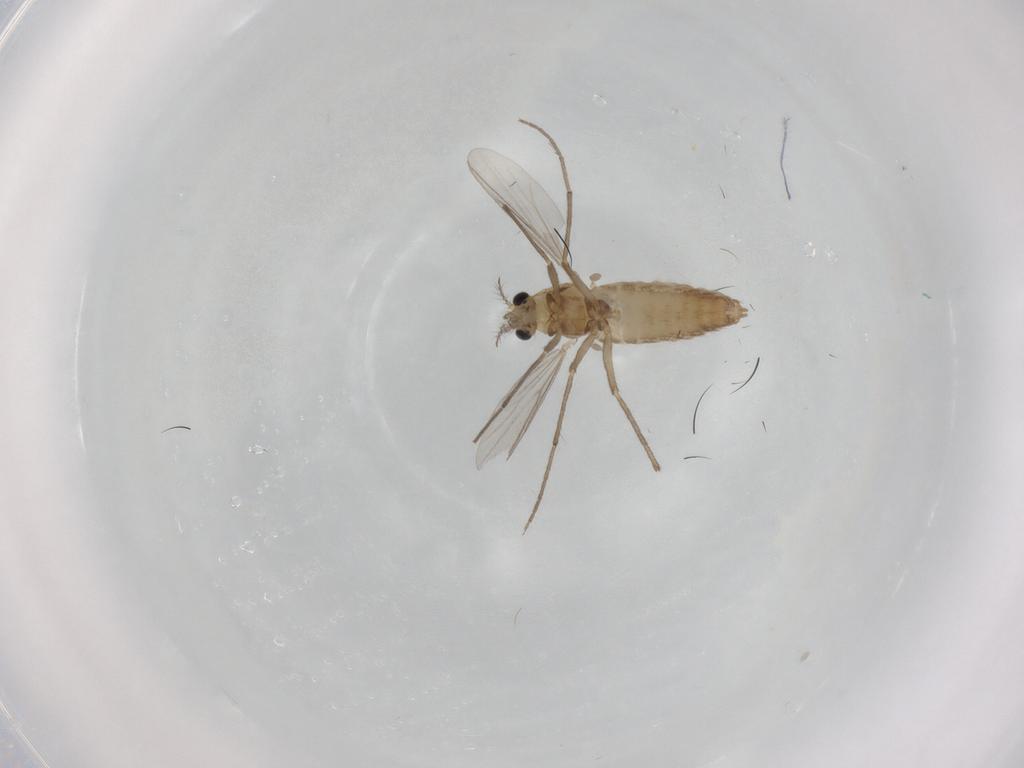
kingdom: Animalia
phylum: Arthropoda
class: Insecta
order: Diptera
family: Chironomidae
